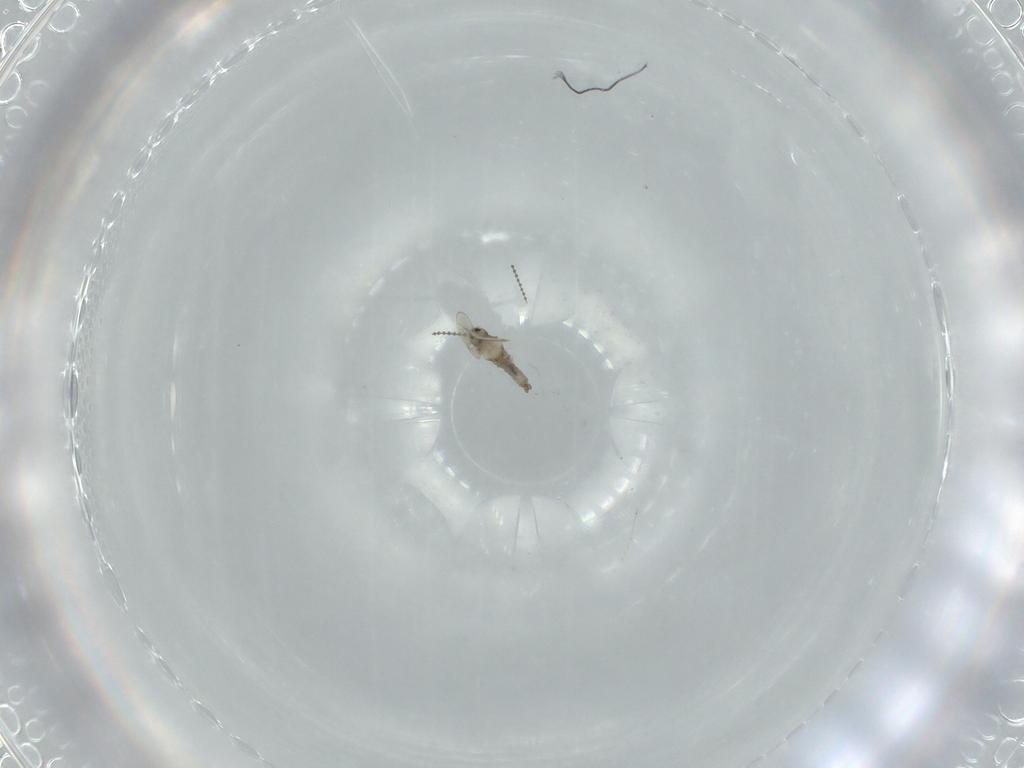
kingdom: Animalia
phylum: Arthropoda
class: Insecta
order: Diptera
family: Cecidomyiidae
